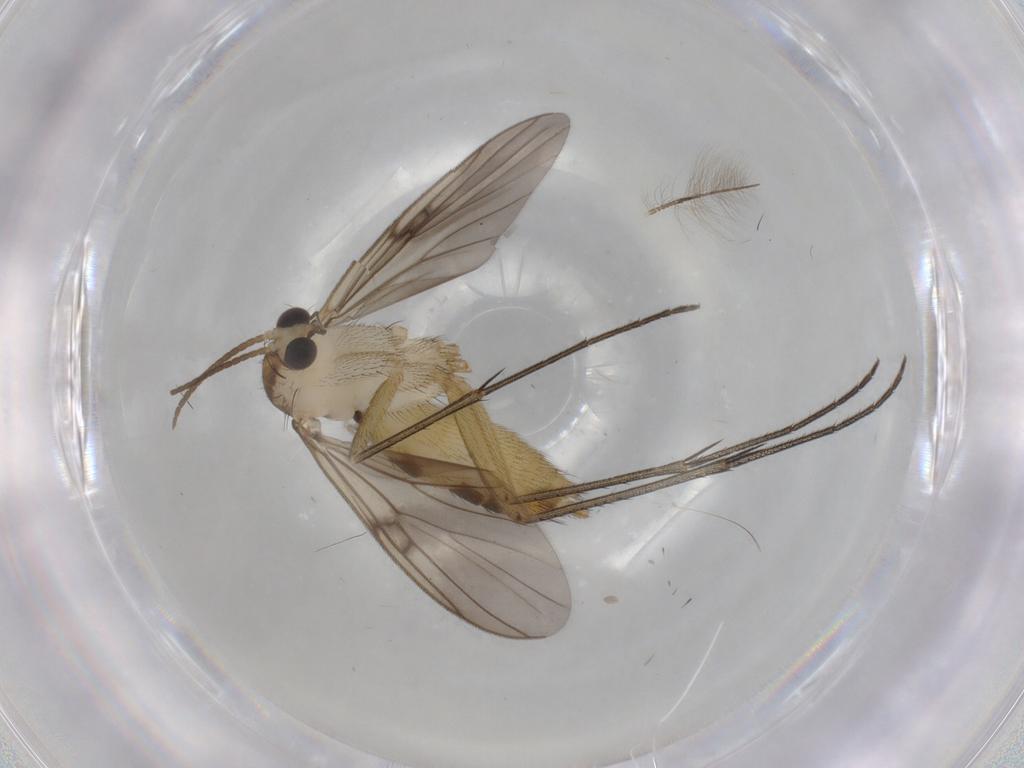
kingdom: Animalia
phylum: Arthropoda
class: Insecta
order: Diptera
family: Mycetophilidae
